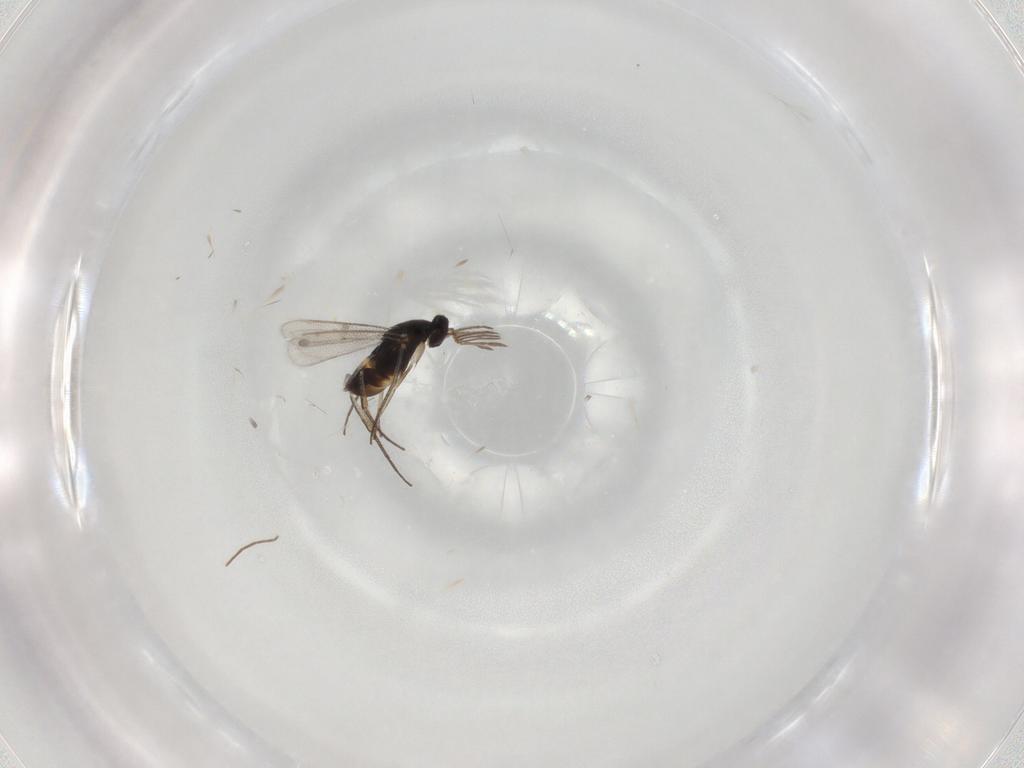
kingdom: Animalia
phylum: Arthropoda
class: Insecta
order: Hymenoptera
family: Eulophidae
